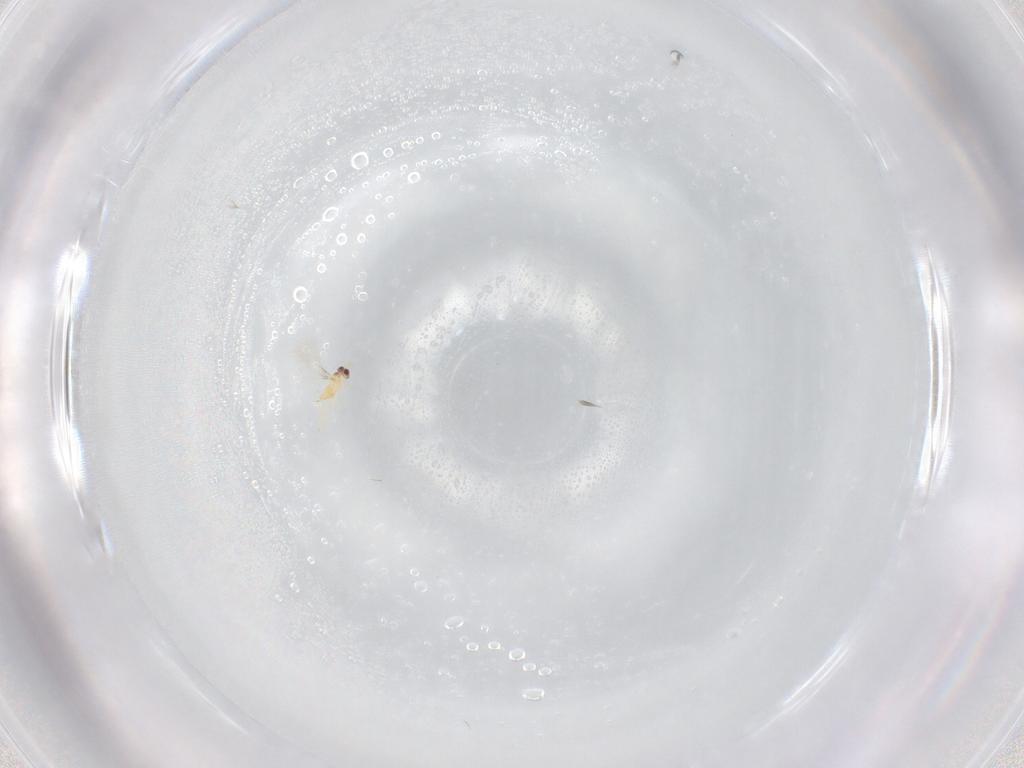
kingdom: Animalia
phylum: Arthropoda
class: Insecta
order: Hymenoptera
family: Mymaridae
